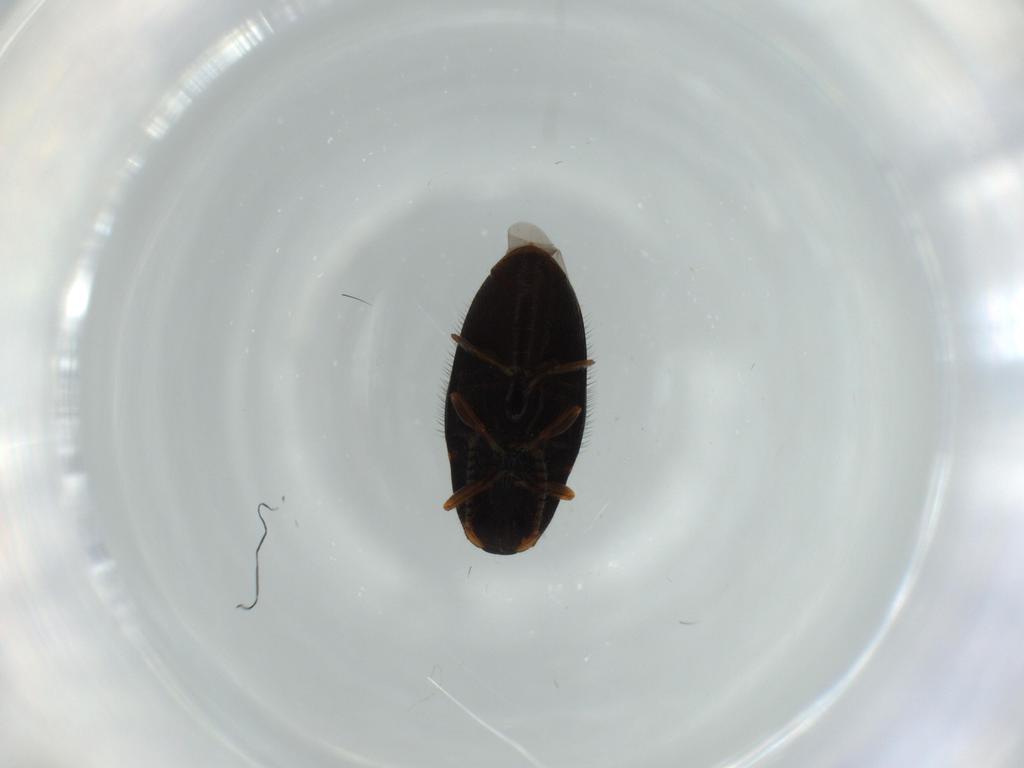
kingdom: Animalia
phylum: Arthropoda
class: Insecta
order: Coleoptera
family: Elateridae
